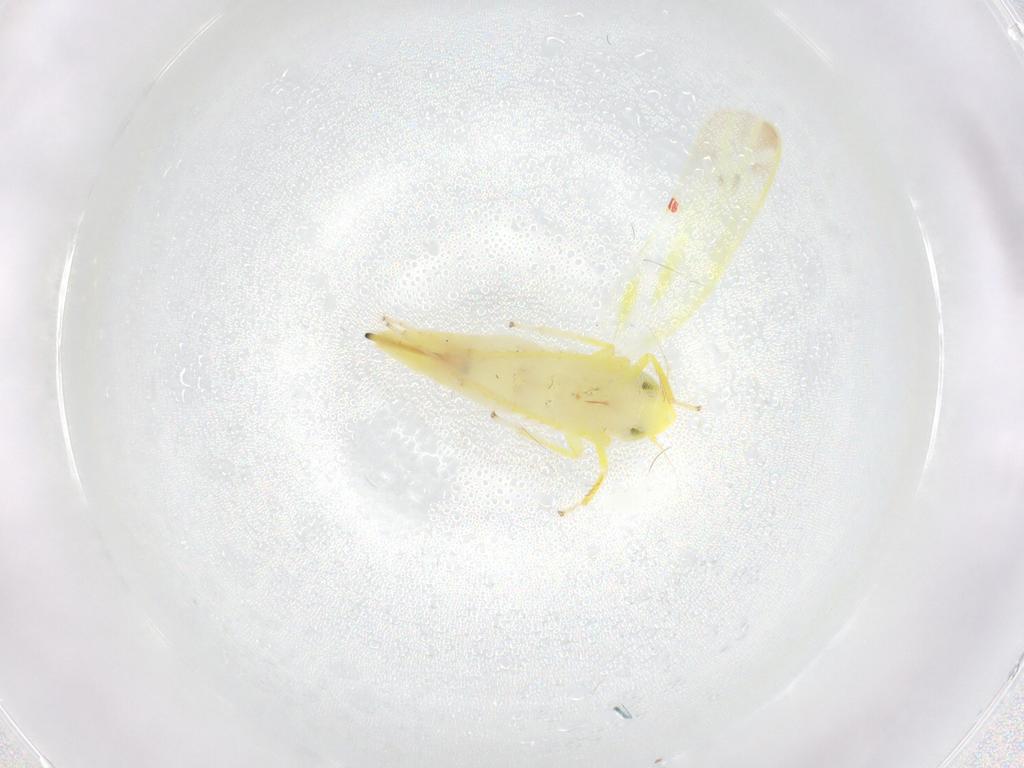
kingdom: Animalia
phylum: Arthropoda
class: Insecta
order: Hemiptera
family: Cicadellidae
